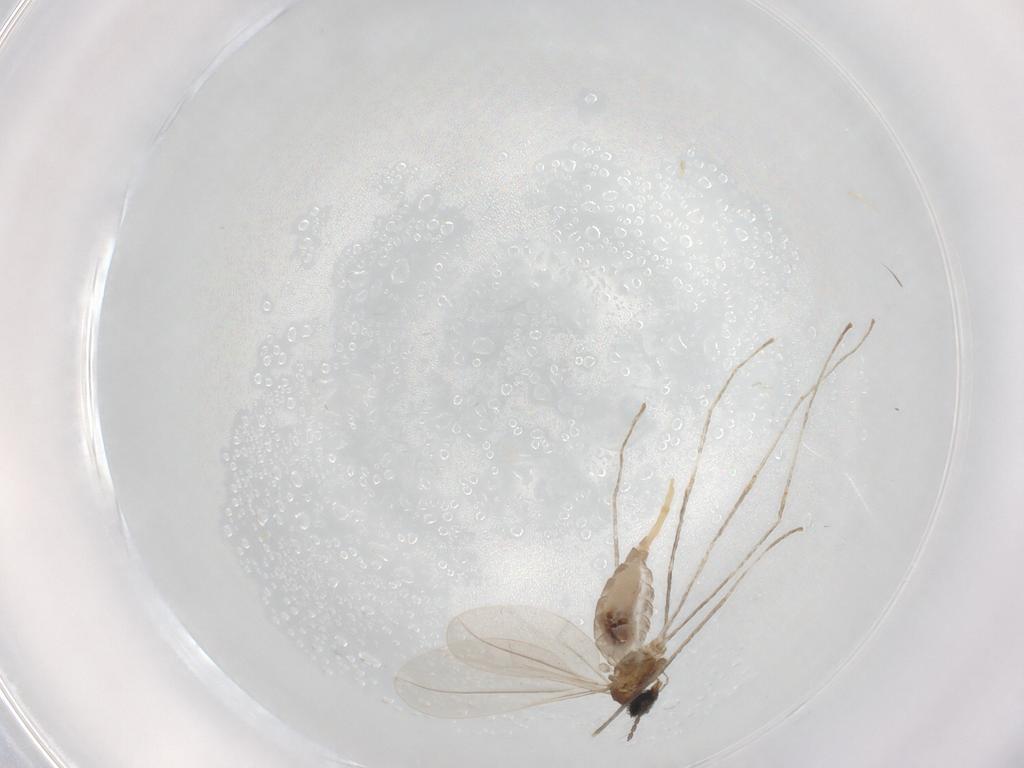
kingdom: Animalia
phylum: Arthropoda
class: Insecta
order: Diptera
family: Cecidomyiidae
